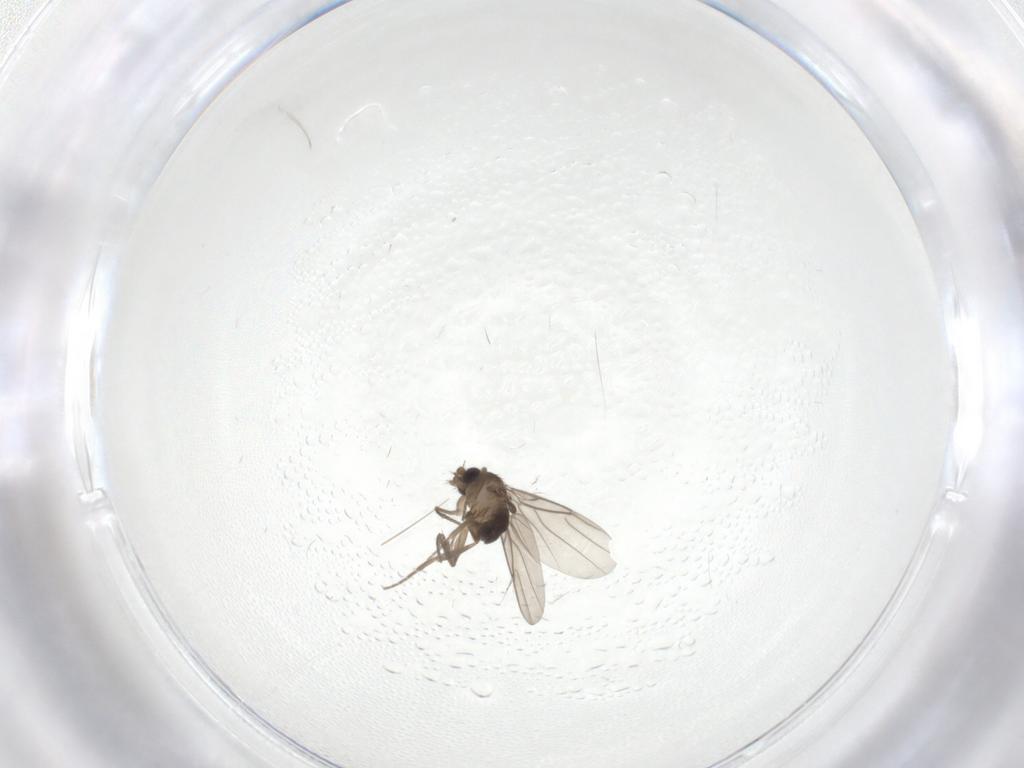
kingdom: Animalia
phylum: Arthropoda
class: Insecta
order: Diptera
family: Phoridae
